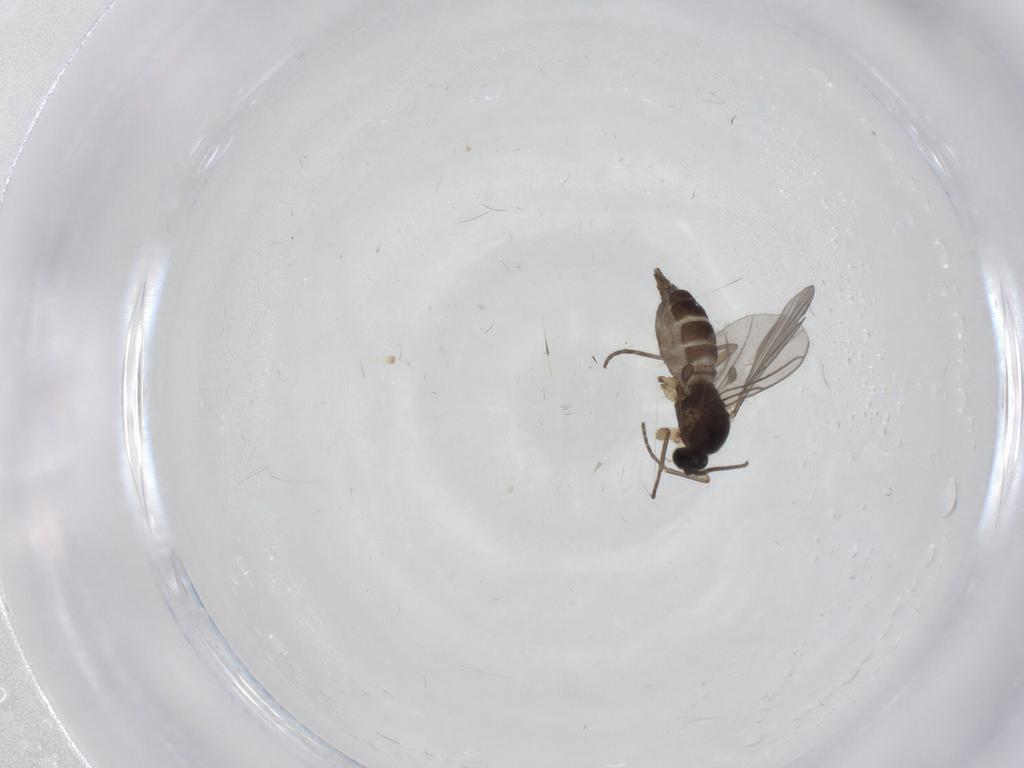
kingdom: Animalia
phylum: Arthropoda
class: Insecta
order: Diptera
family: Sciaridae
